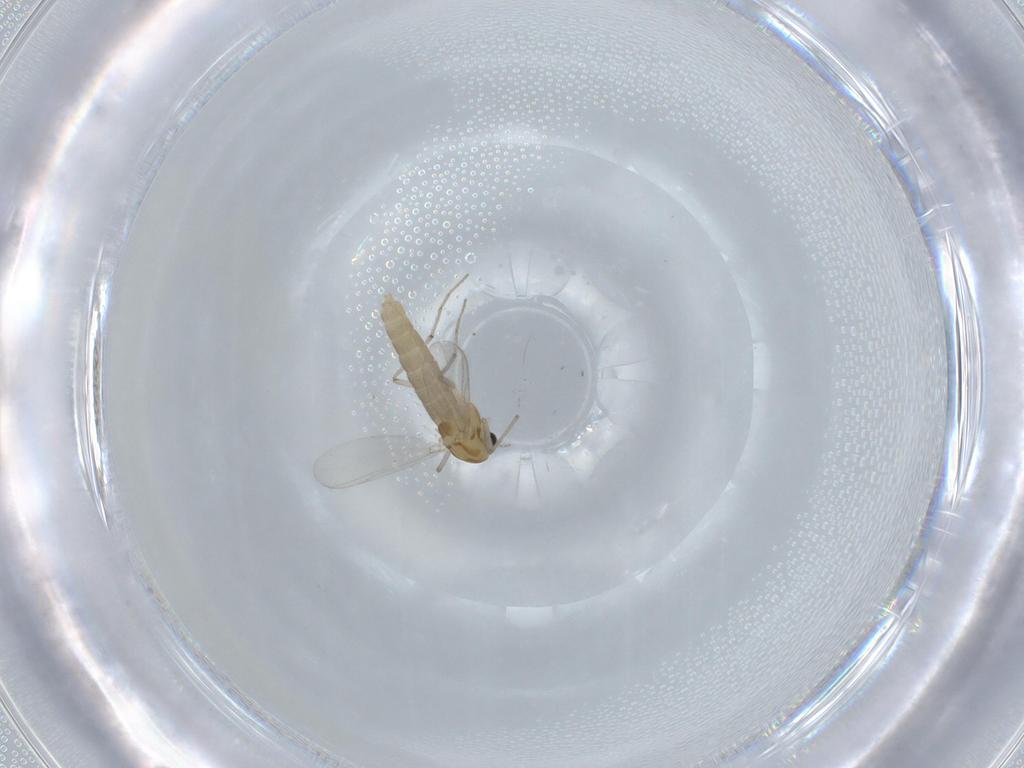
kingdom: Animalia
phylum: Arthropoda
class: Insecta
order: Diptera
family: Chironomidae
